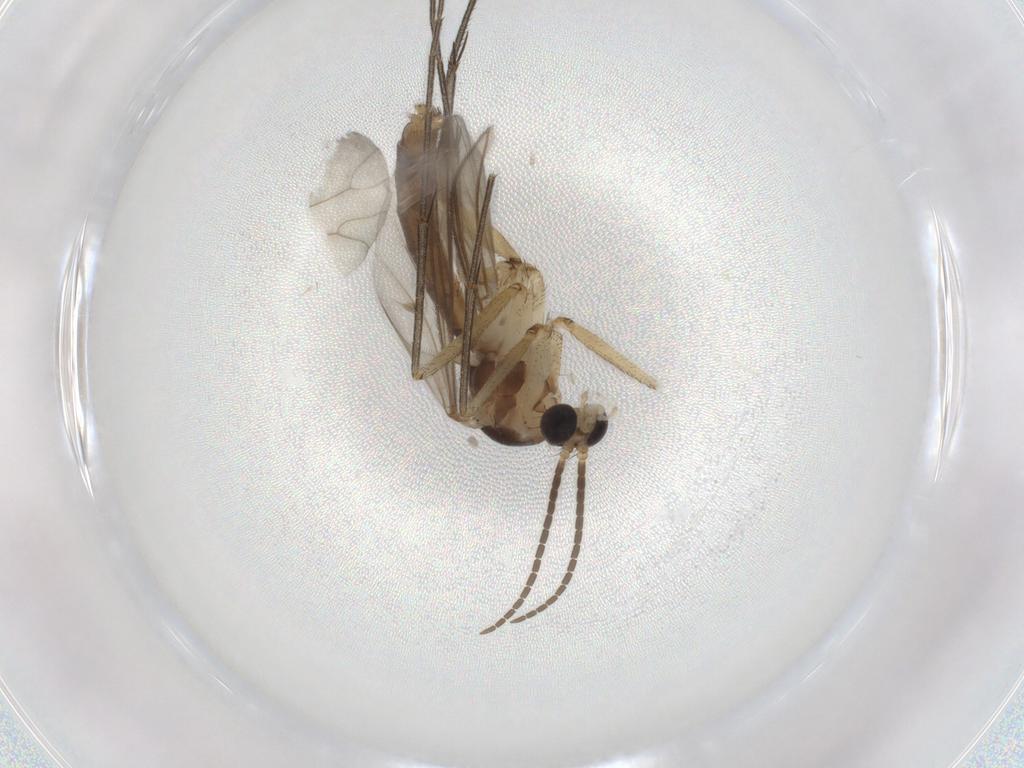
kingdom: Animalia
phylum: Arthropoda
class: Insecta
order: Diptera
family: Mycetophilidae
